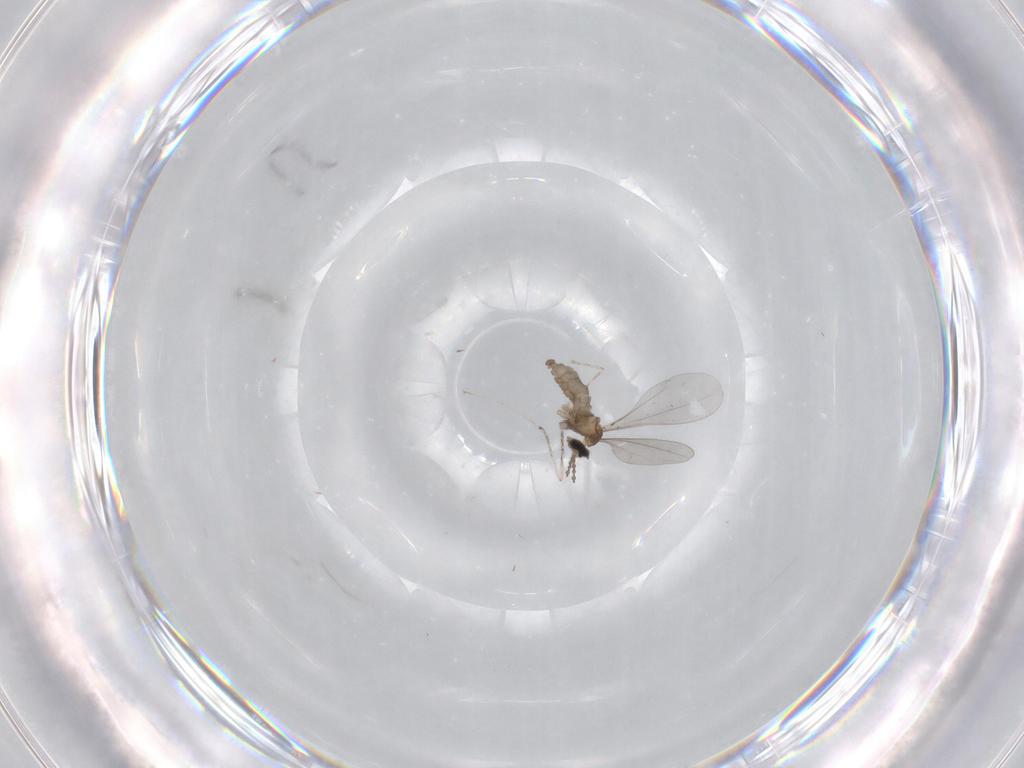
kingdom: Animalia
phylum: Arthropoda
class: Insecta
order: Diptera
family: Cecidomyiidae
